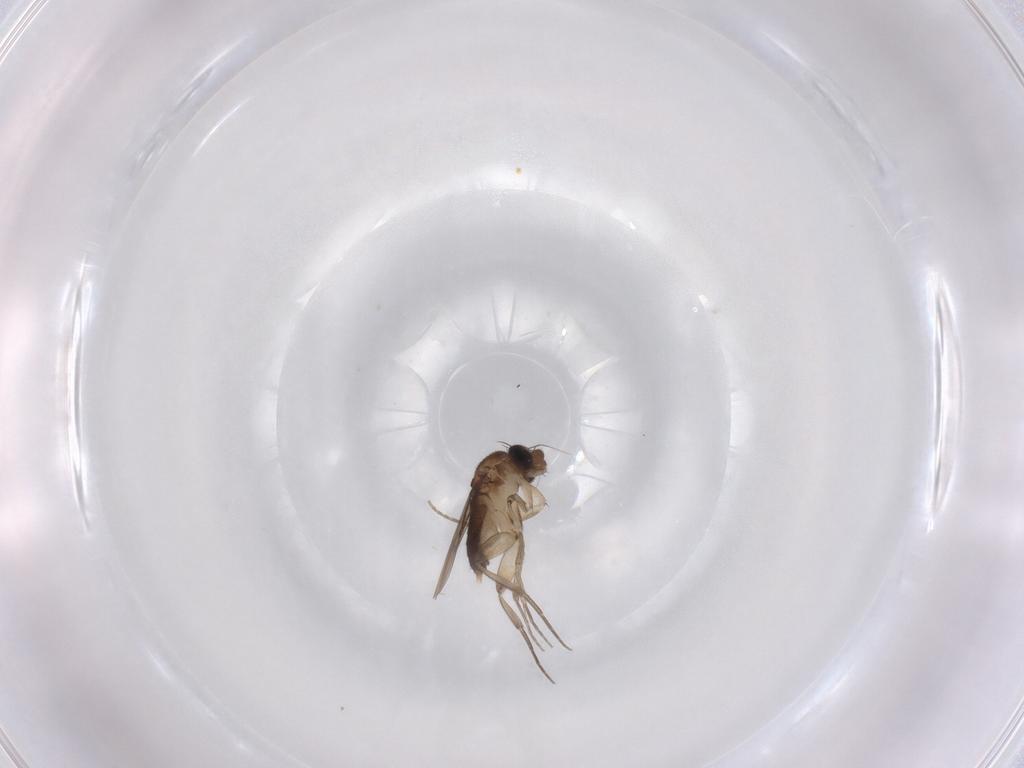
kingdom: Animalia
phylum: Arthropoda
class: Insecta
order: Diptera
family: Phoridae
